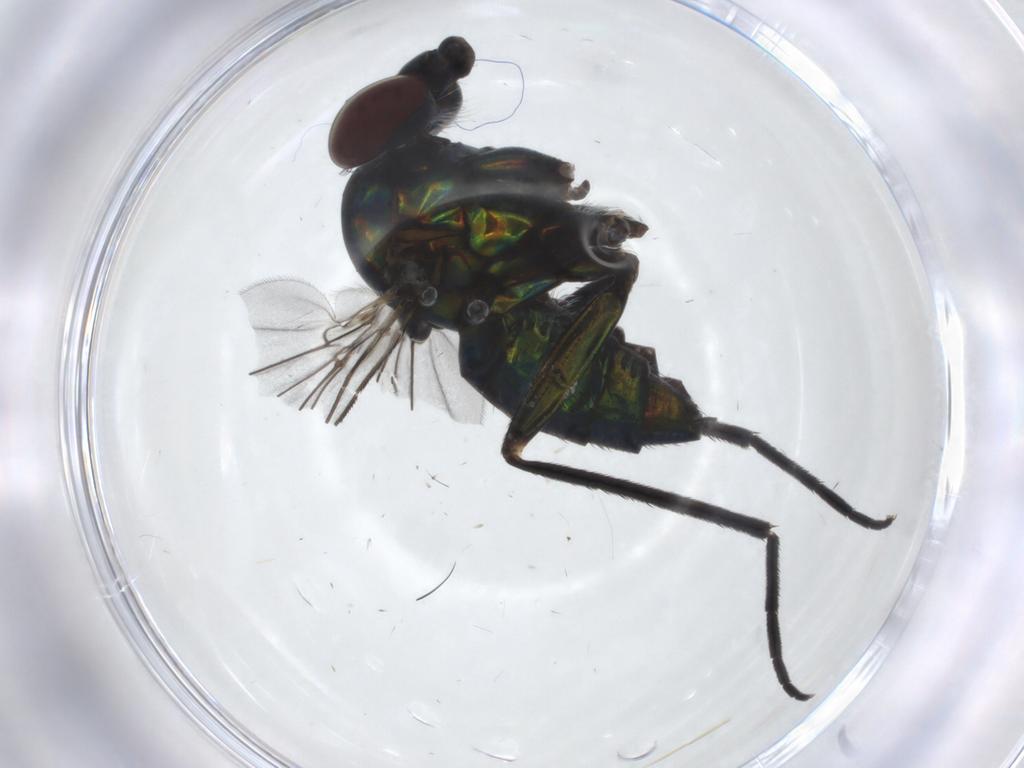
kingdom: Animalia
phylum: Arthropoda
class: Insecta
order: Diptera
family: Dolichopodidae
